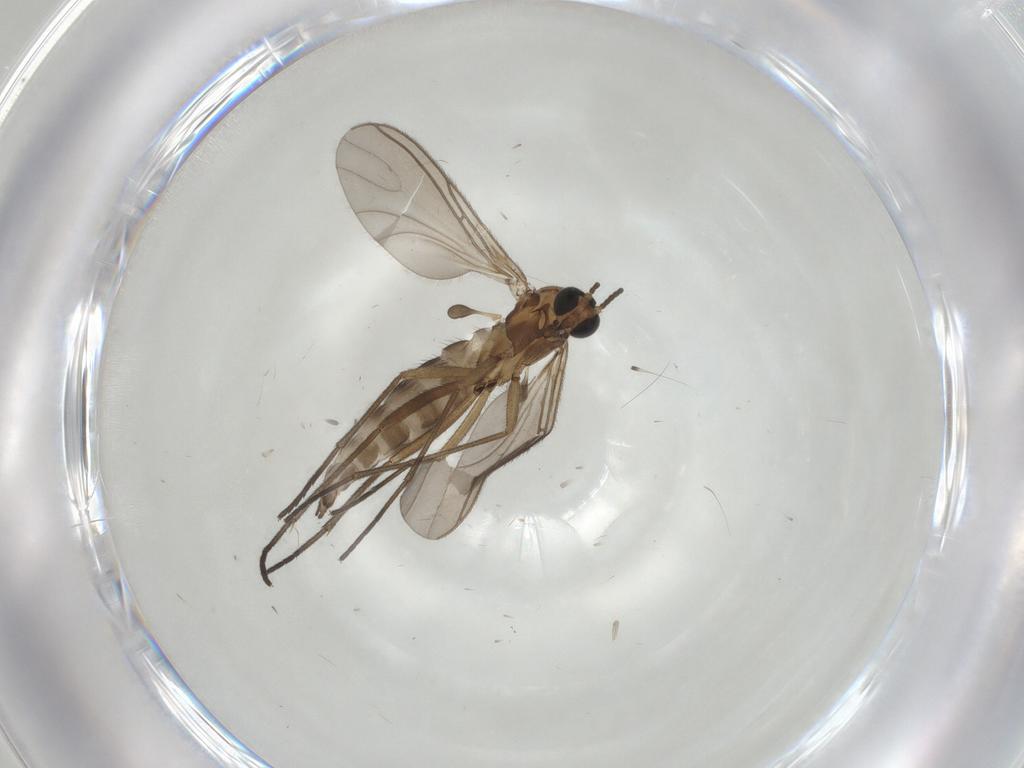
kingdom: Animalia
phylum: Arthropoda
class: Insecta
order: Diptera
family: Sciaridae
